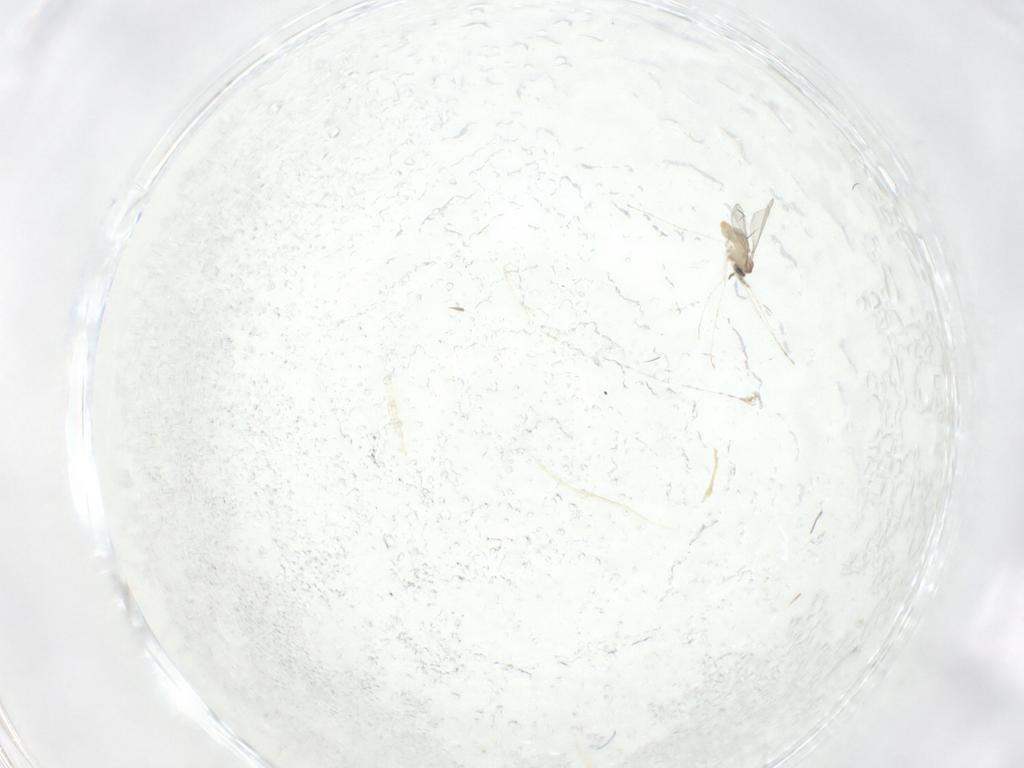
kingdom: Animalia
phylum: Arthropoda
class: Insecta
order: Diptera
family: Cecidomyiidae
